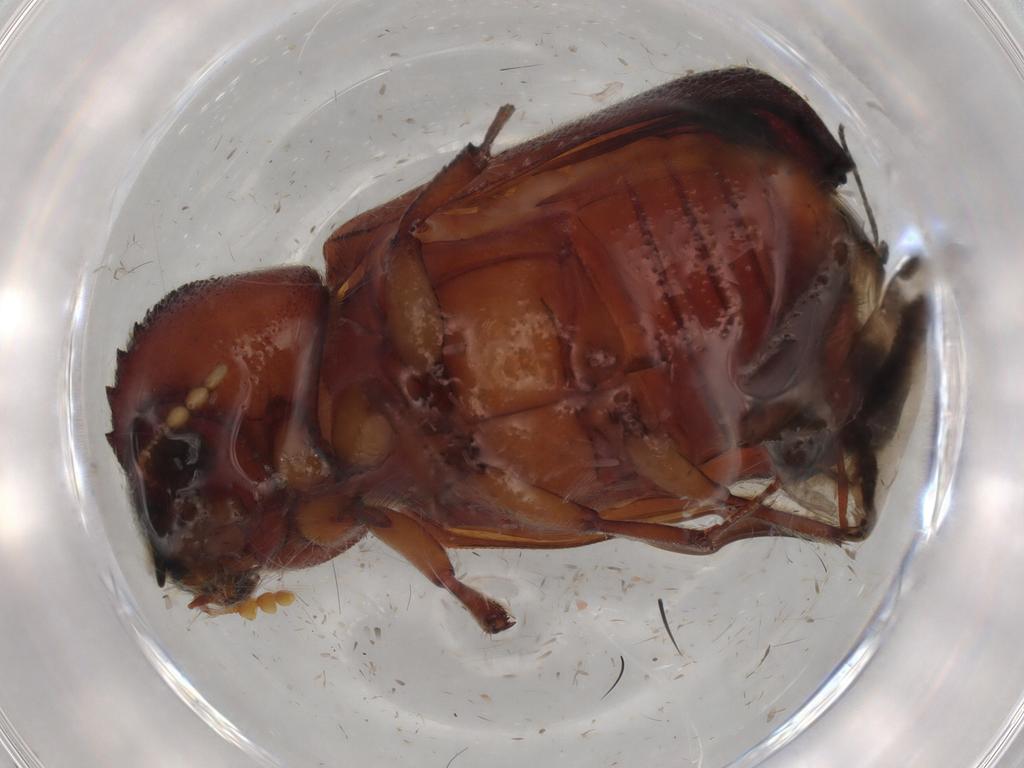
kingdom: Animalia
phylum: Arthropoda
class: Insecta
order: Coleoptera
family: Bostrichidae
